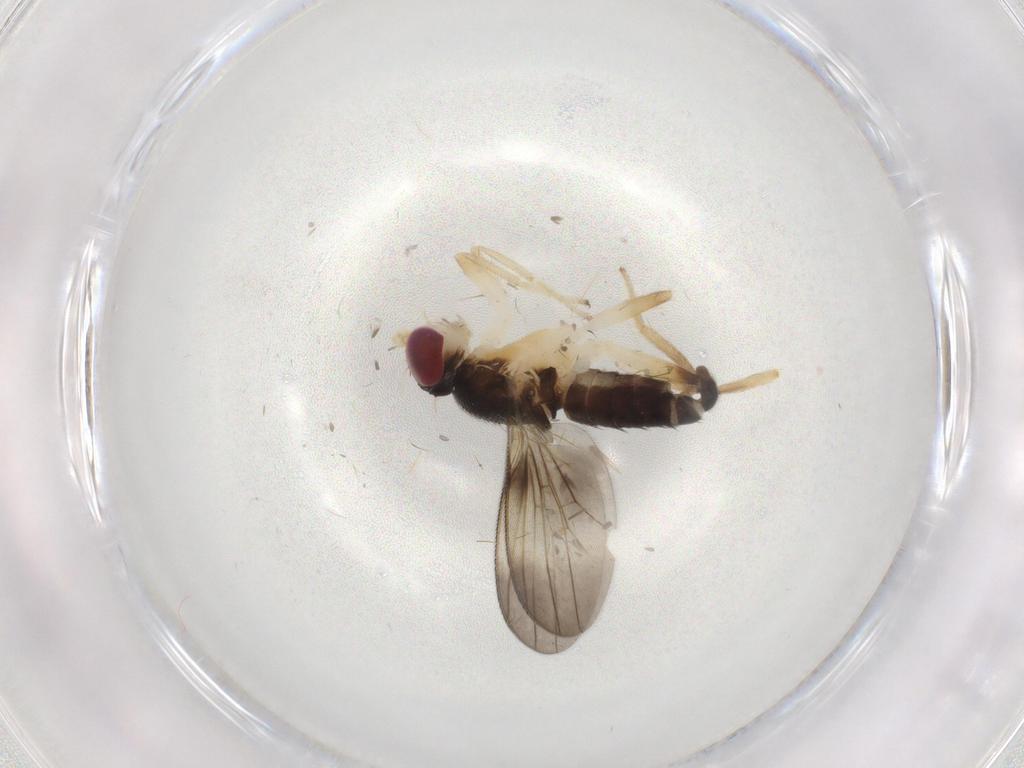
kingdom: Animalia
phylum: Arthropoda
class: Insecta
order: Diptera
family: Clusiidae
